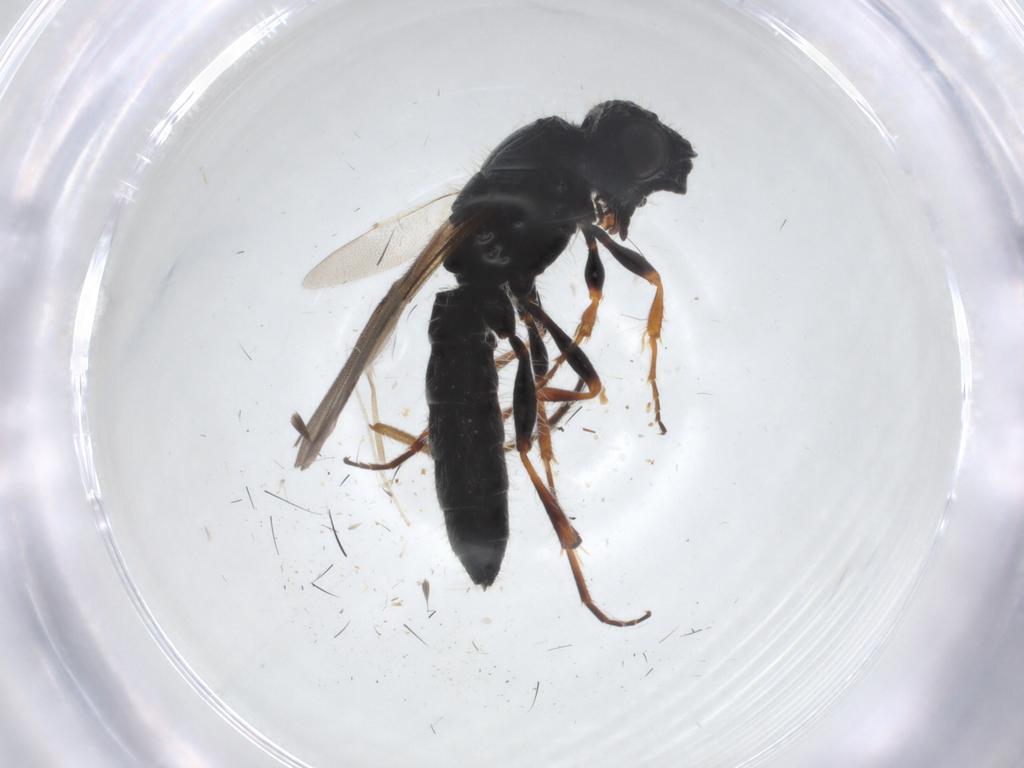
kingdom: Animalia
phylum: Arthropoda
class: Insecta
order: Hymenoptera
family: Scelionidae
